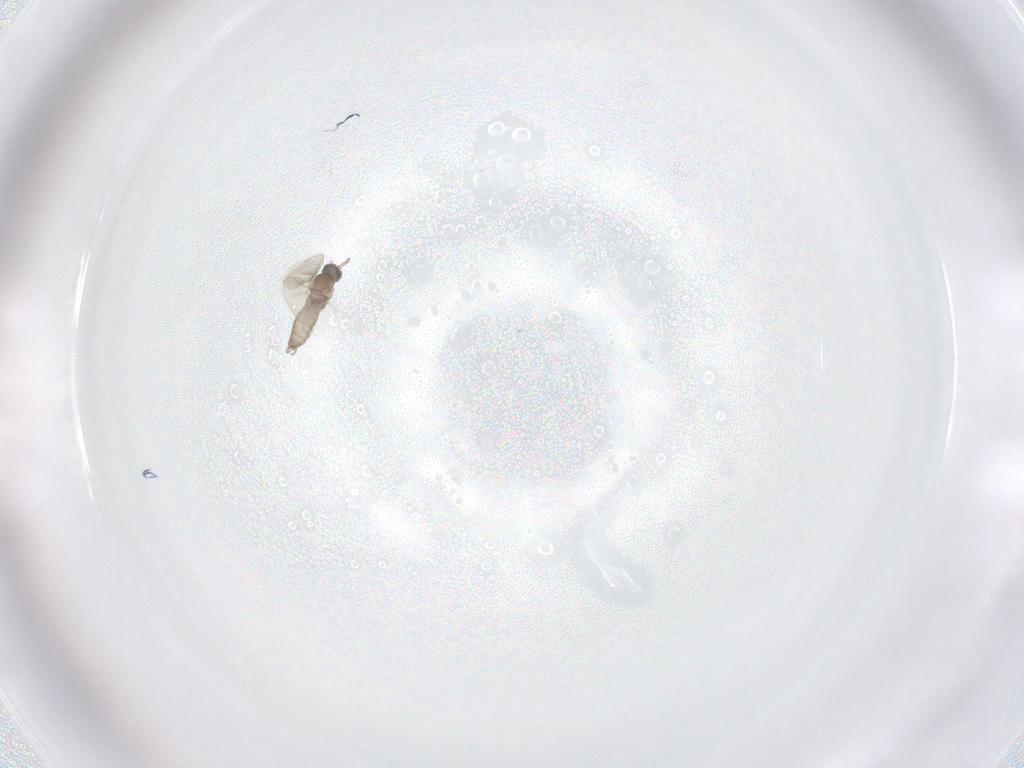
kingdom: Animalia
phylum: Arthropoda
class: Insecta
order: Diptera
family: Cecidomyiidae
